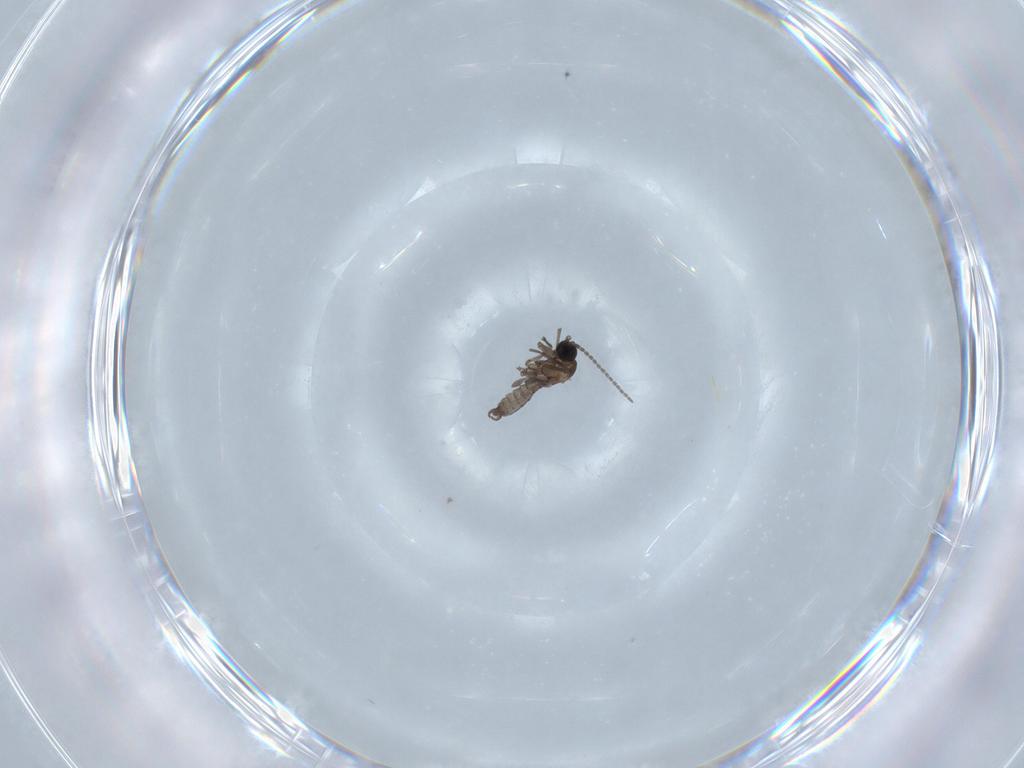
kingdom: Animalia
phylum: Arthropoda
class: Insecta
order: Diptera
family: Sciaridae
